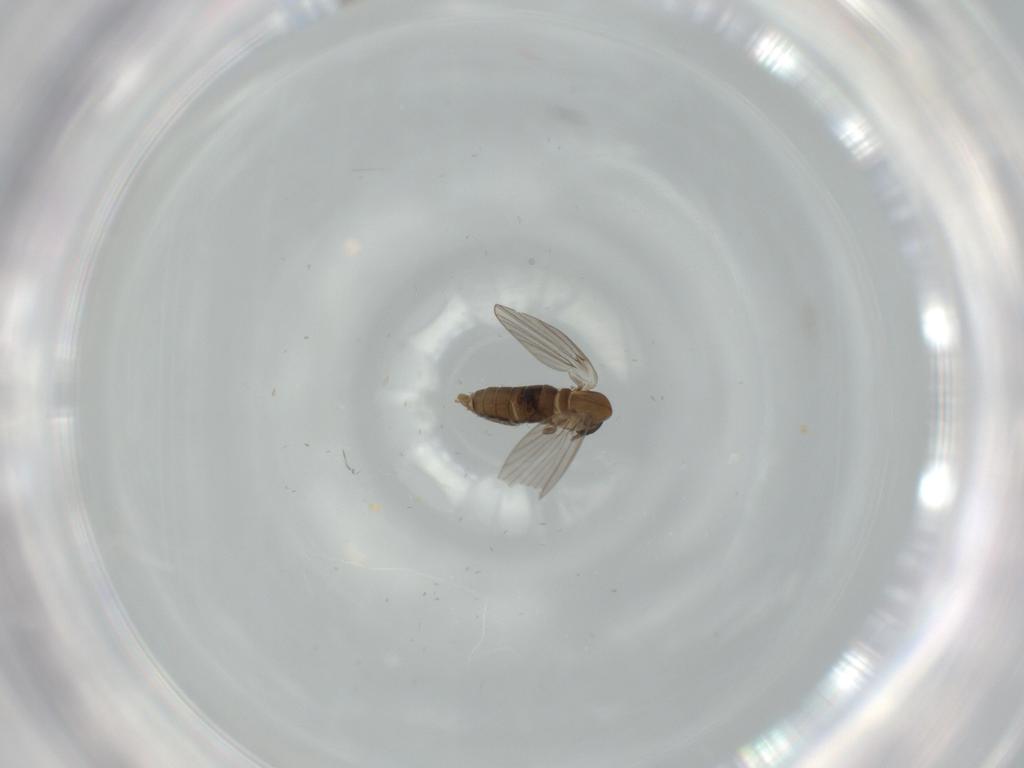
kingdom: Animalia
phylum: Arthropoda
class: Insecta
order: Diptera
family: Phoridae
